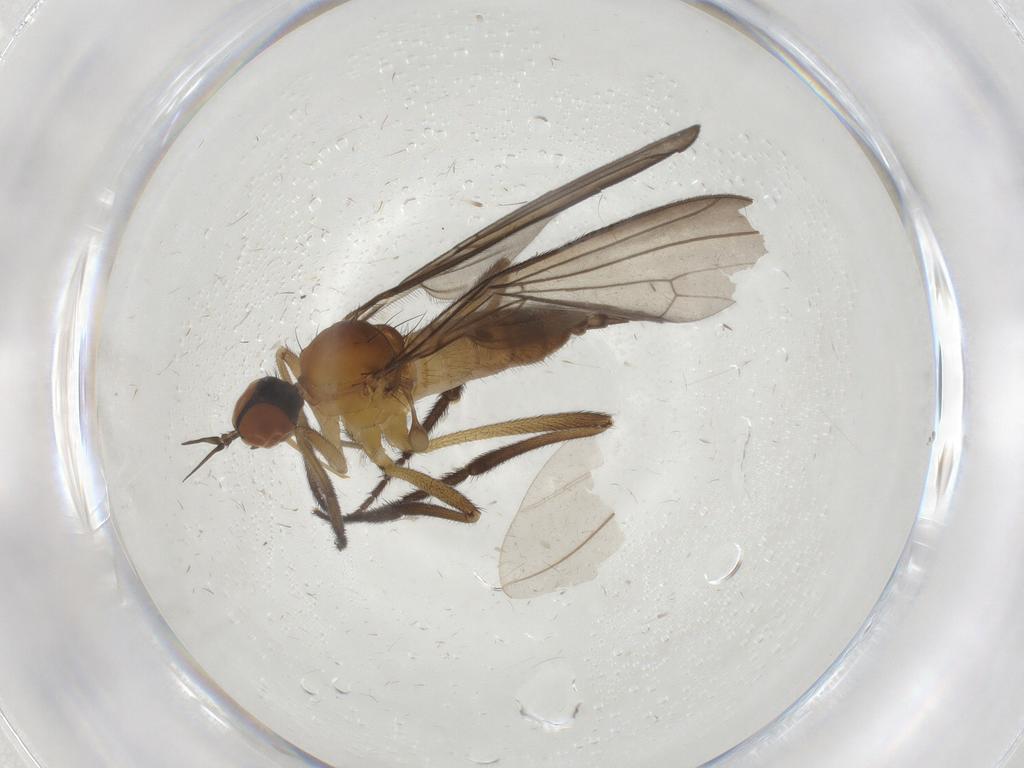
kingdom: Animalia
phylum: Arthropoda
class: Insecta
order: Diptera
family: Empididae
